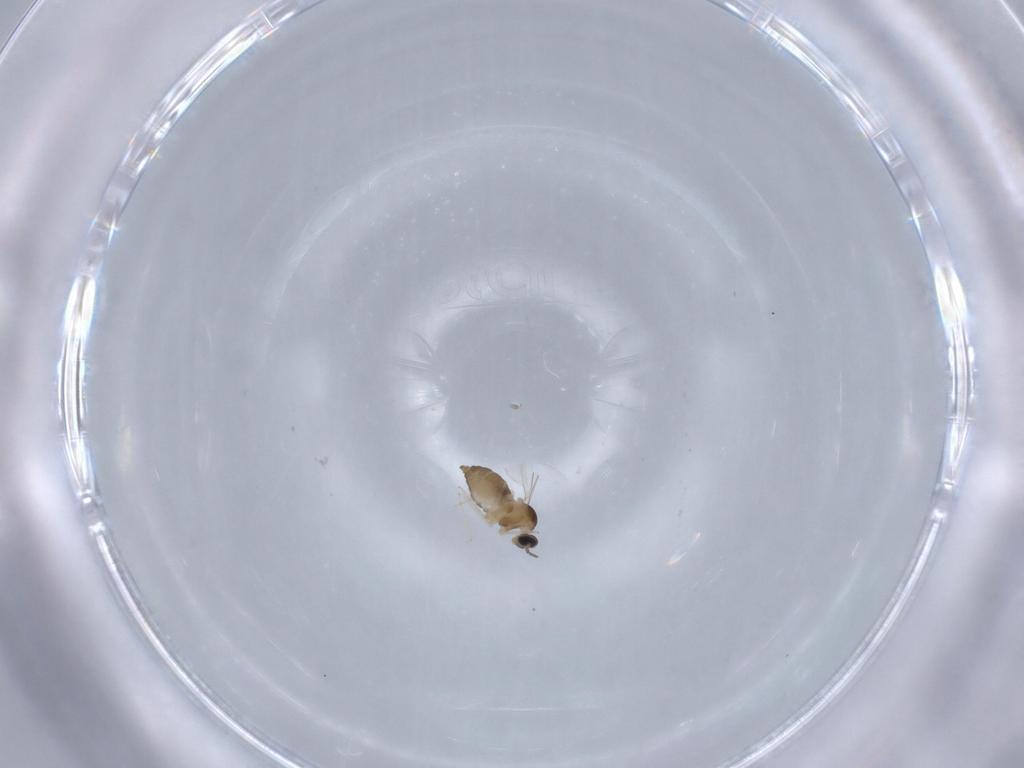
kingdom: Animalia
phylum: Arthropoda
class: Insecta
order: Diptera
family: Cecidomyiidae
